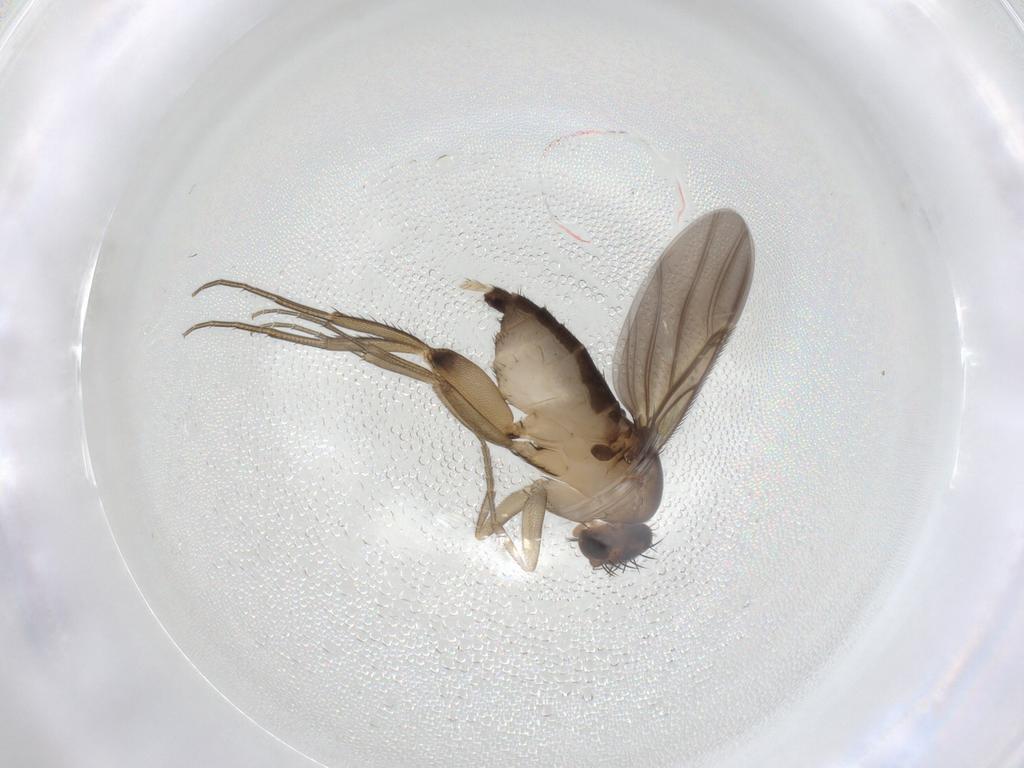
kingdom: Animalia
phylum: Arthropoda
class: Insecta
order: Diptera
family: Phoridae
